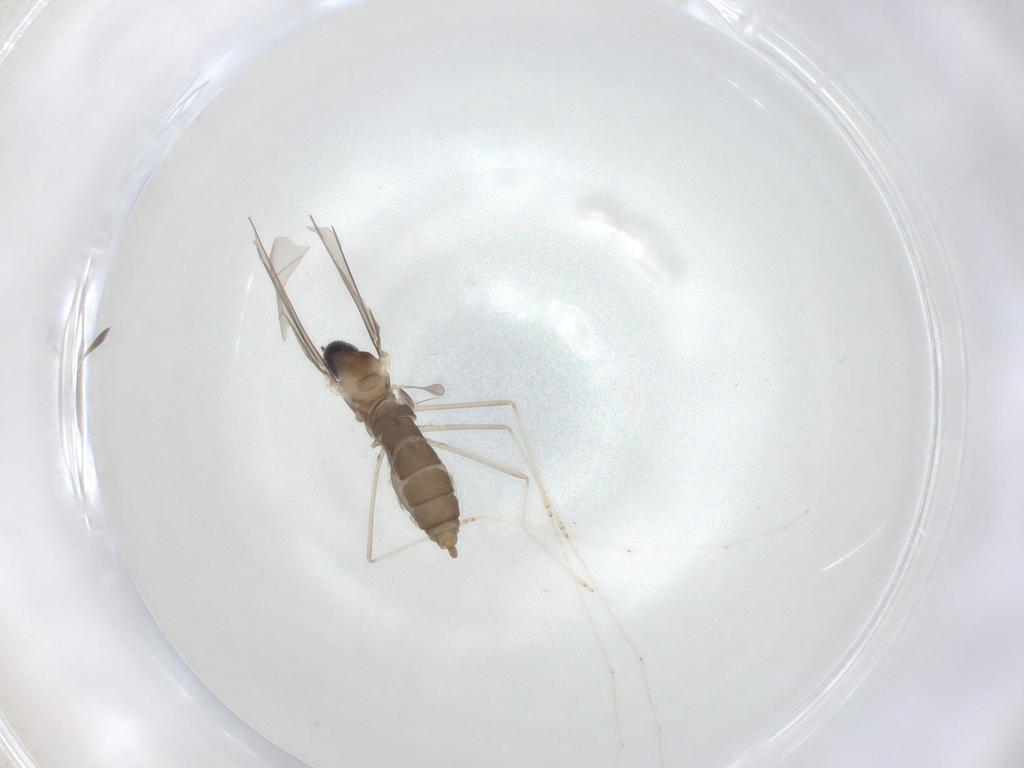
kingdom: Animalia
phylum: Arthropoda
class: Insecta
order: Diptera
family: Cecidomyiidae
